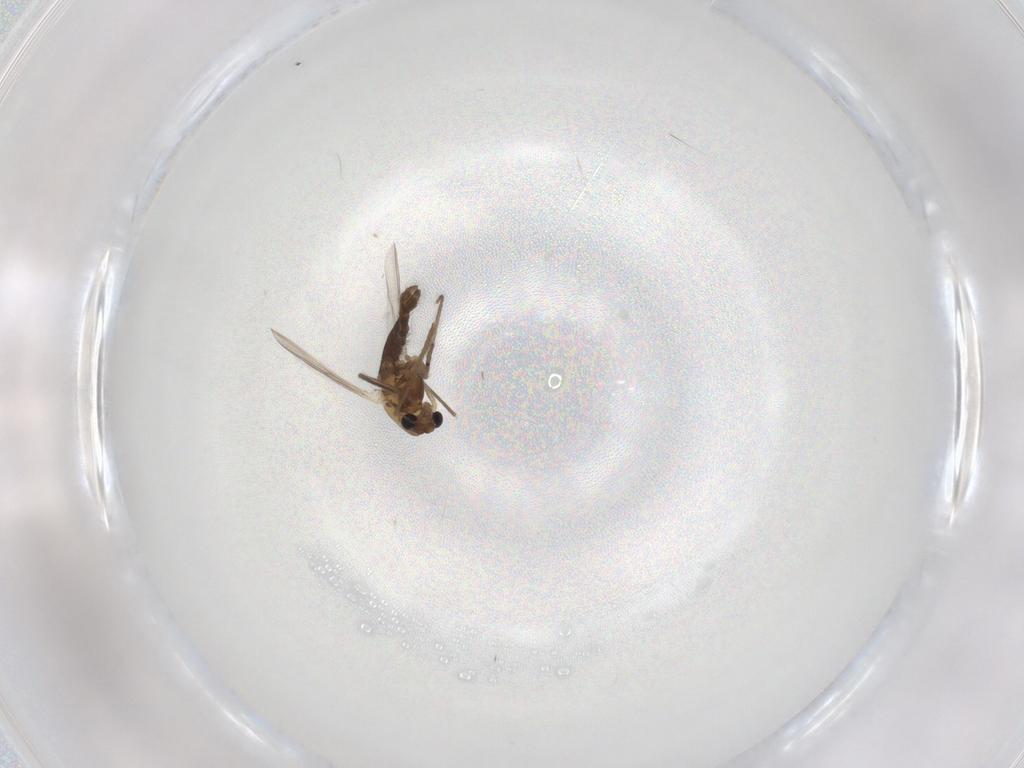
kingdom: Animalia
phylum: Arthropoda
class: Insecta
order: Diptera
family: Chironomidae
